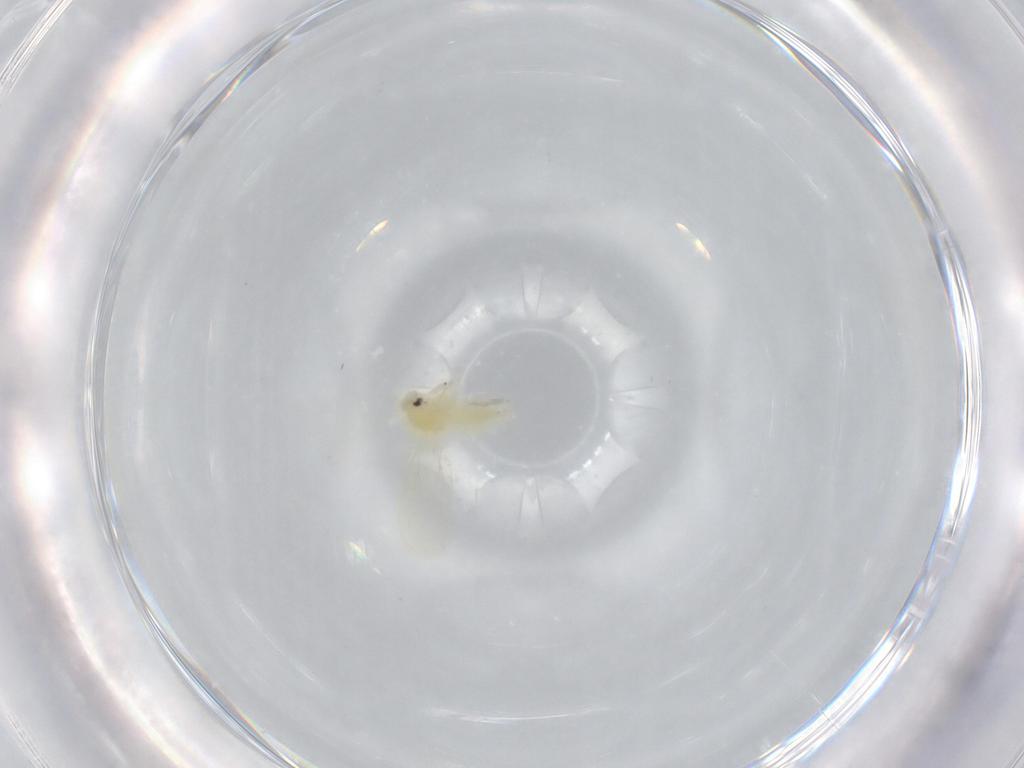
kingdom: Animalia
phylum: Arthropoda
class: Insecta
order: Hemiptera
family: Aleyrodidae
